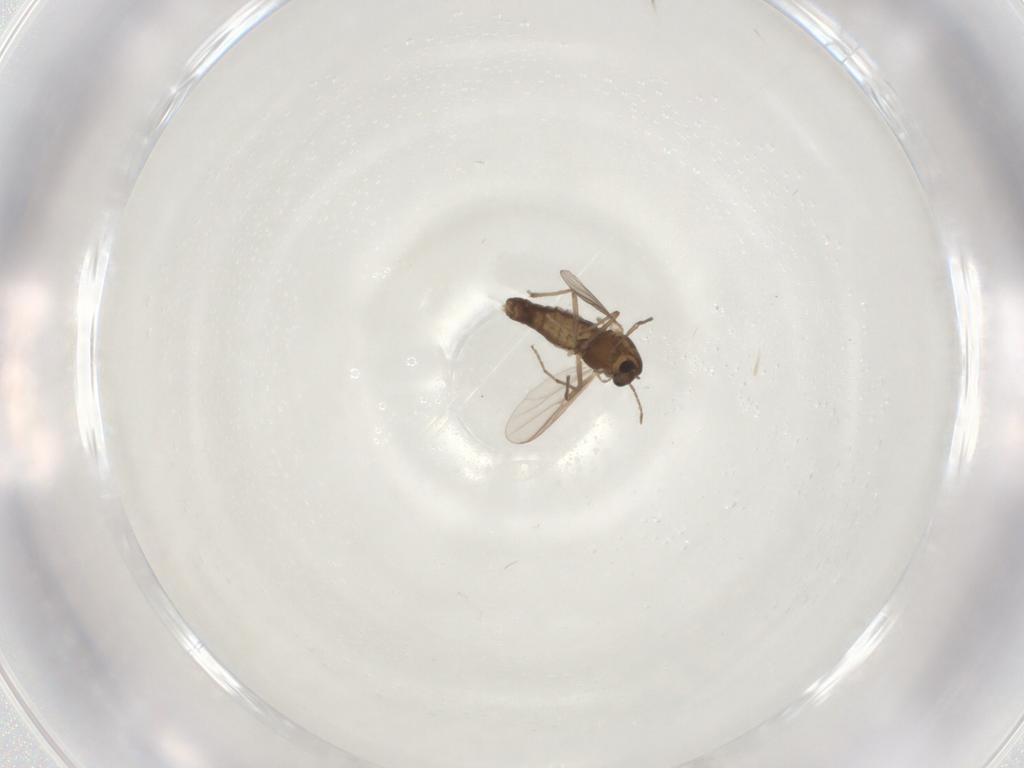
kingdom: Animalia
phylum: Arthropoda
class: Insecta
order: Diptera
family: Chironomidae
